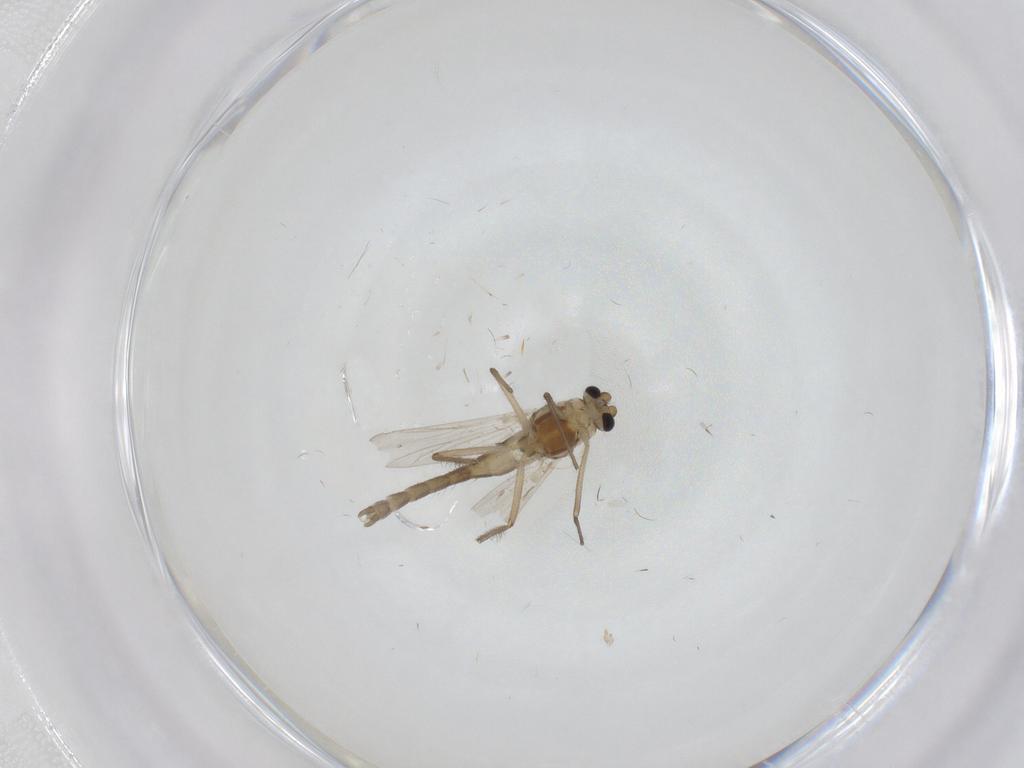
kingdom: Animalia
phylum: Arthropoda
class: Insecta
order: Diptera
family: Chironomidae
